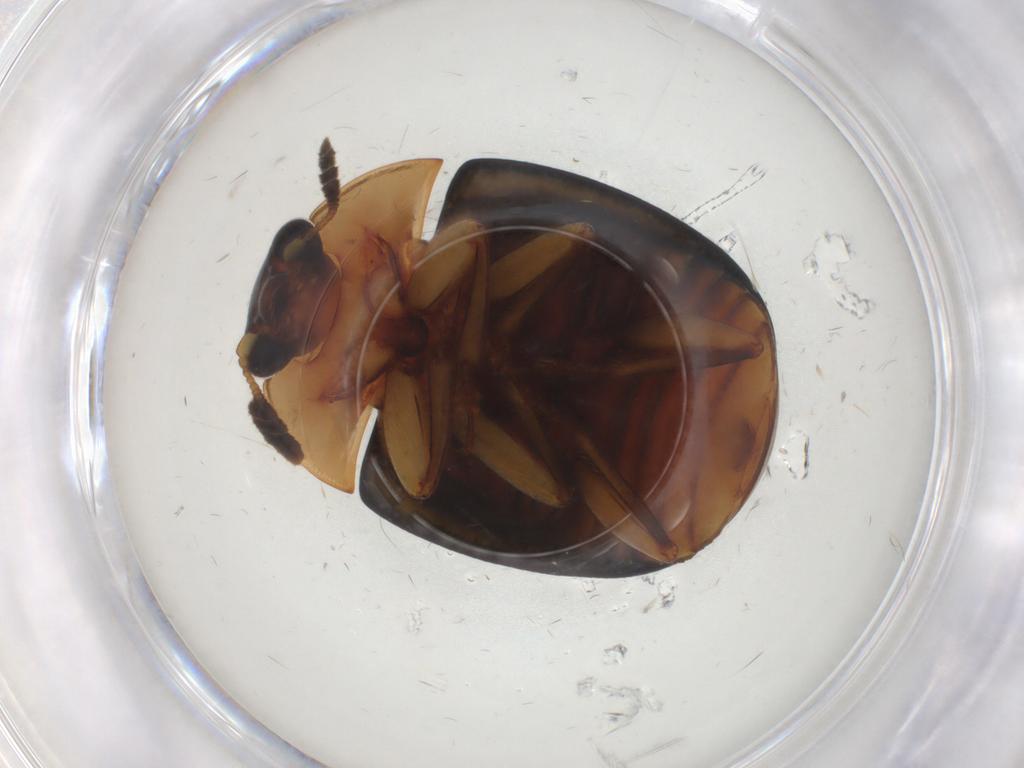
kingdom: Animalia
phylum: Arthropoda
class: Insecta
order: Coleoptera
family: Nitidulidae
